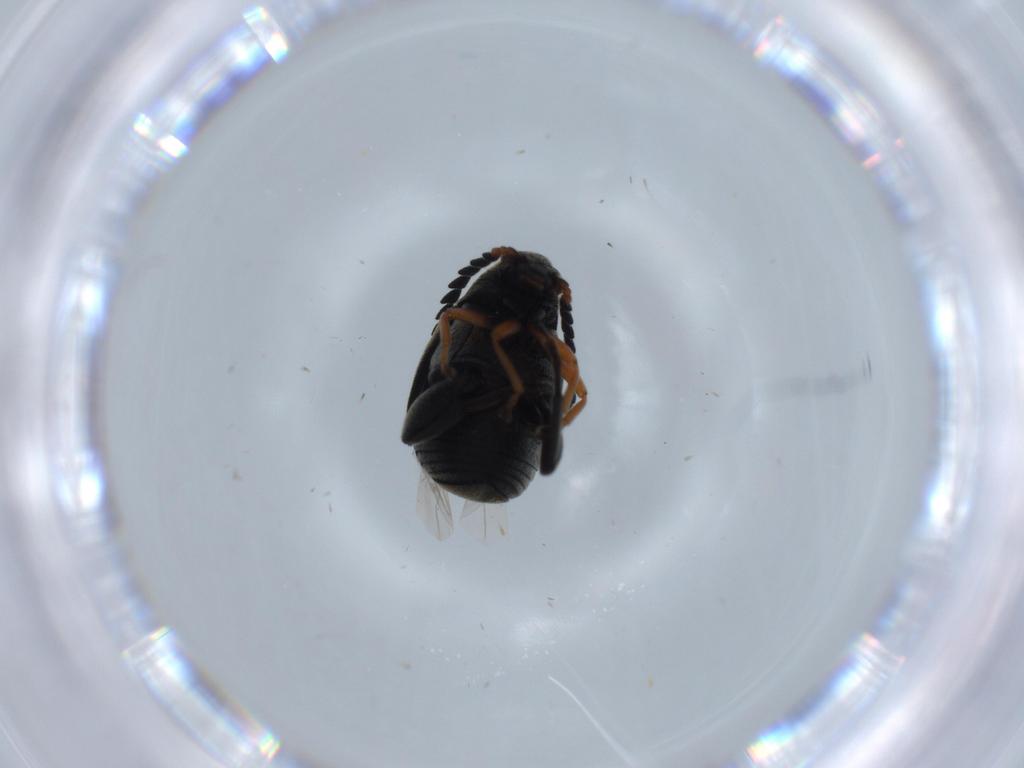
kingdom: Animalia
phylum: Arthropoda
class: Insecta
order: Coleoptera
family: Chrysomelidae
